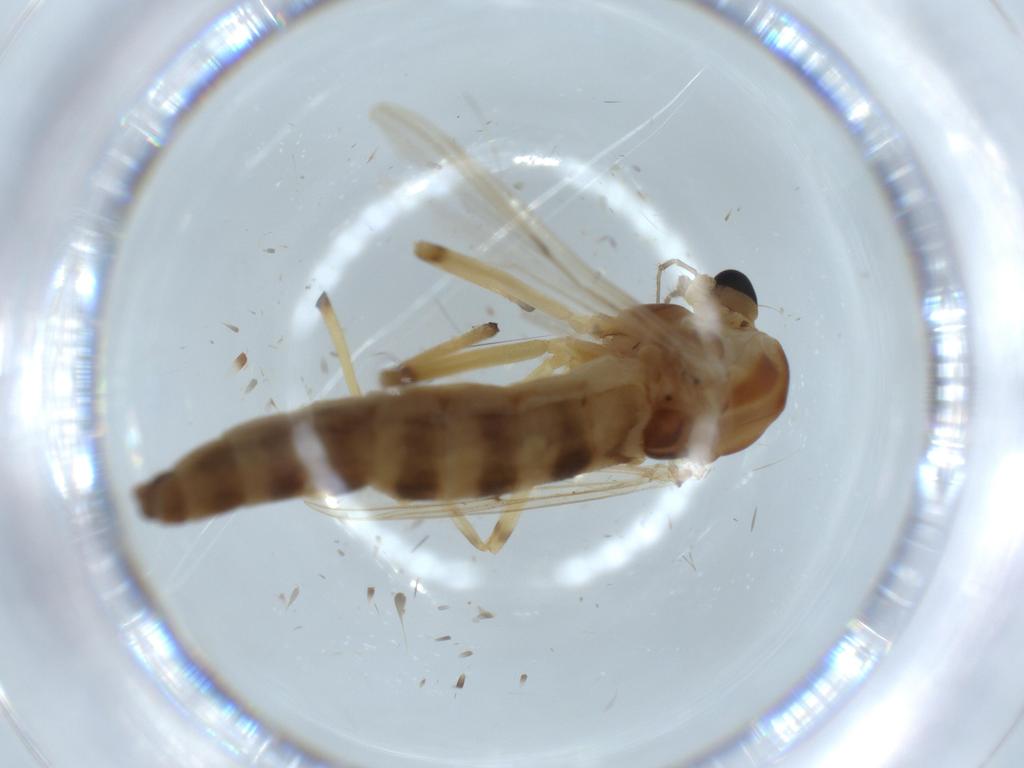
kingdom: Animalia
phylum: Arthropoda
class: Insecta
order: Diptera
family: Chironomidae
